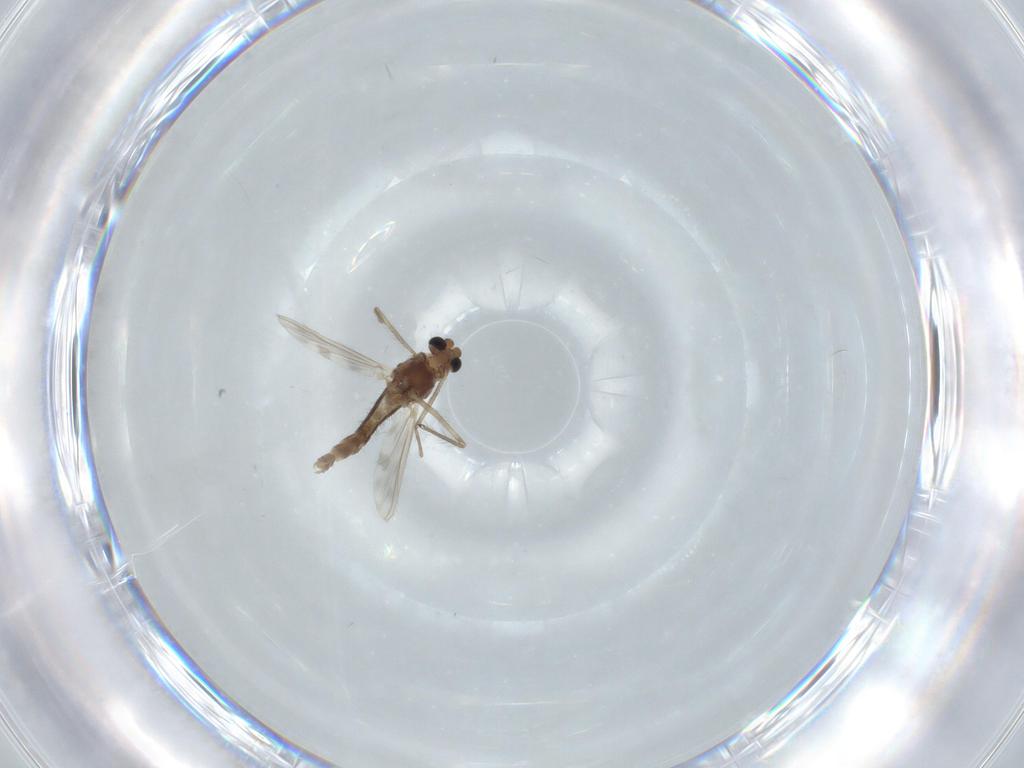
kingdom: Animalia
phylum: Arthropoda
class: Insecta
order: Diptera
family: Chironomidae
